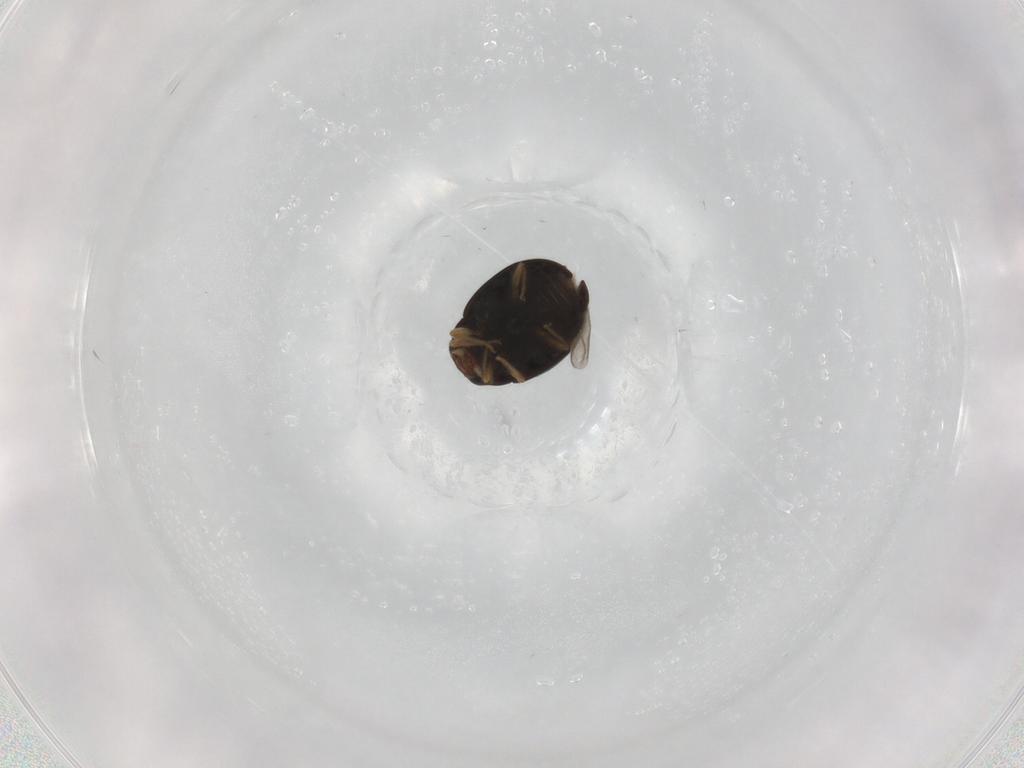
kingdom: Animalia
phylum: Arthropoda
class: Insecta
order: Coleoptera
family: Coccinellidae
